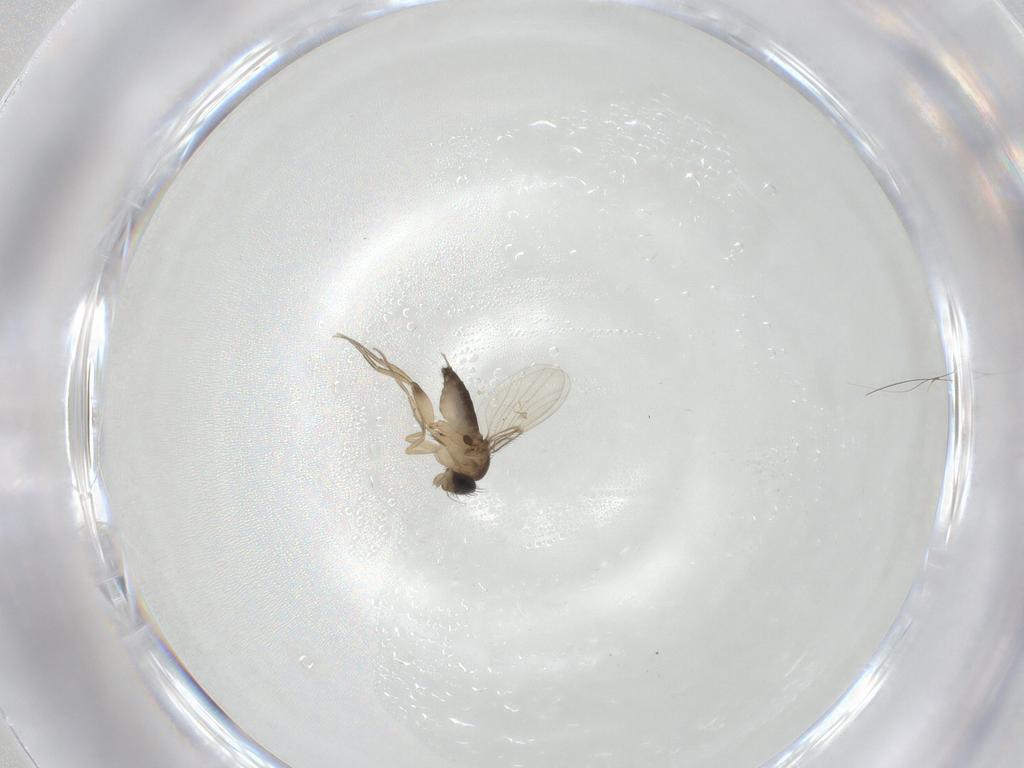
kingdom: Animalia
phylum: Arthropoda
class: Insecta
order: Diptera
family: Phoridae
